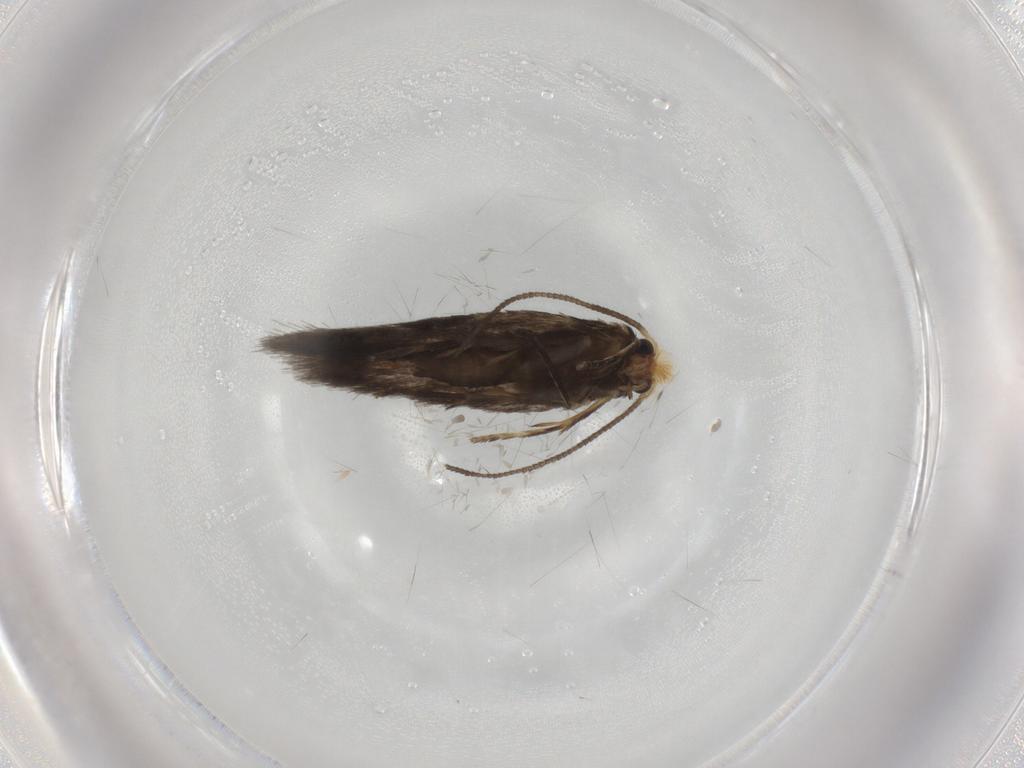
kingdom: Animalia
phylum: Arthropoda
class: Insecta
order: Lepidoptera
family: Nepticulidae
